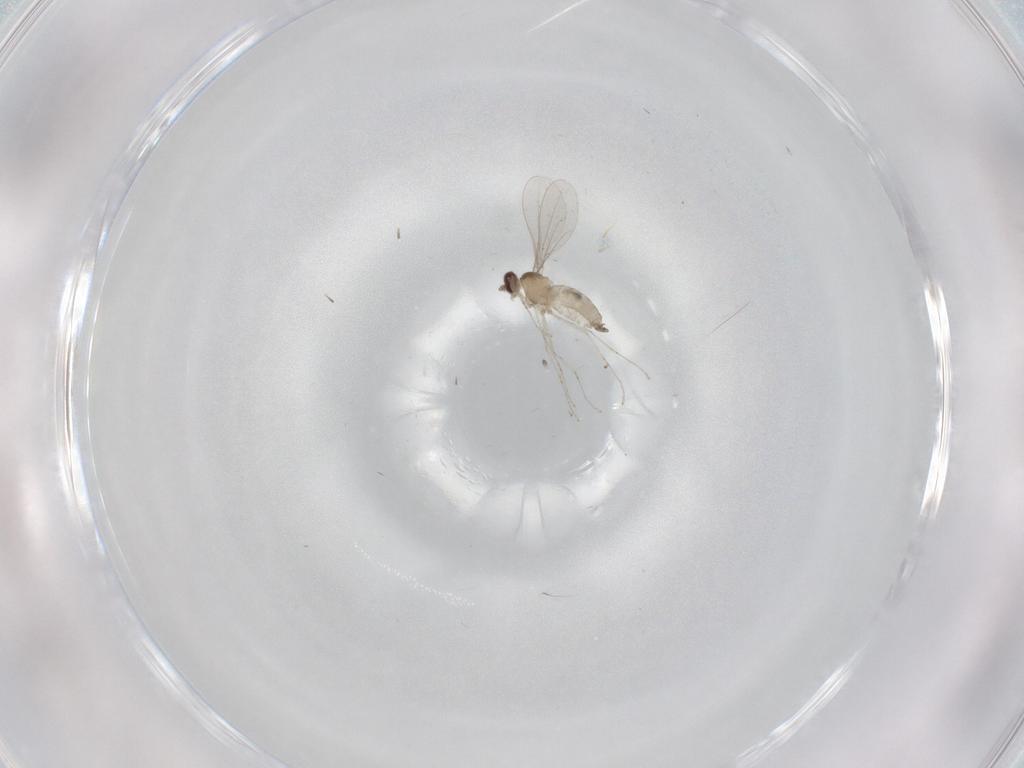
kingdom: Animalia
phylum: Arthropoda
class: Insecta
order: Diptera
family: Cecidomyiidae
